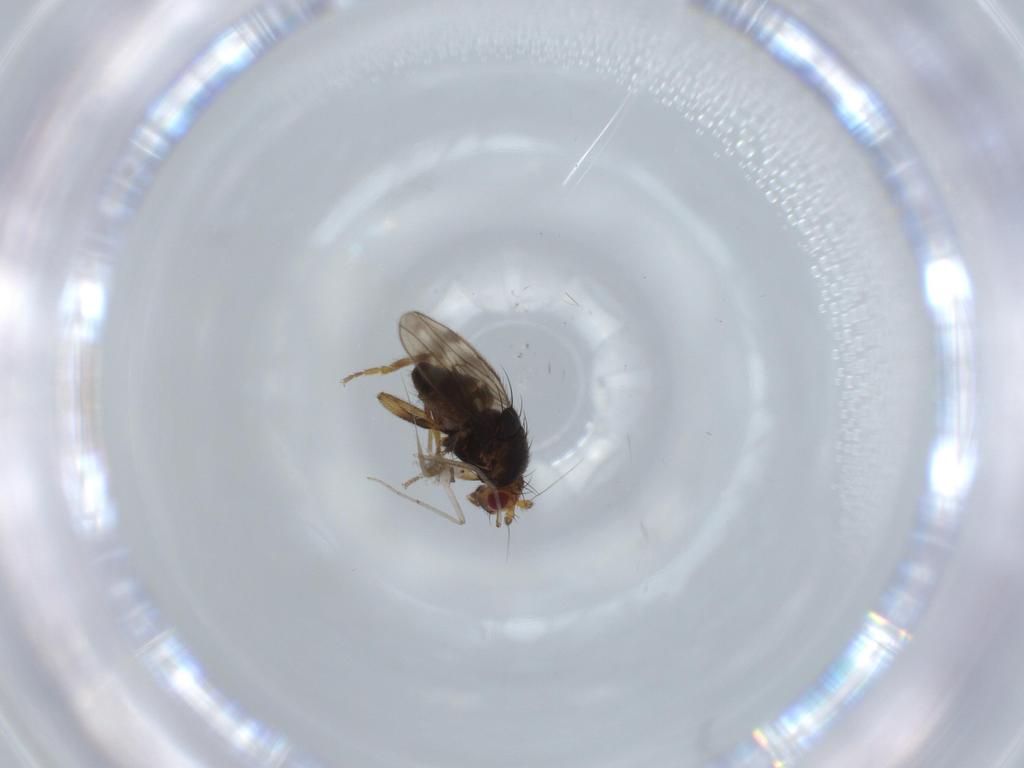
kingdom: Animalia
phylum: Arthropoda
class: Insecta
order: Diptera
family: Sphaeroceridae
